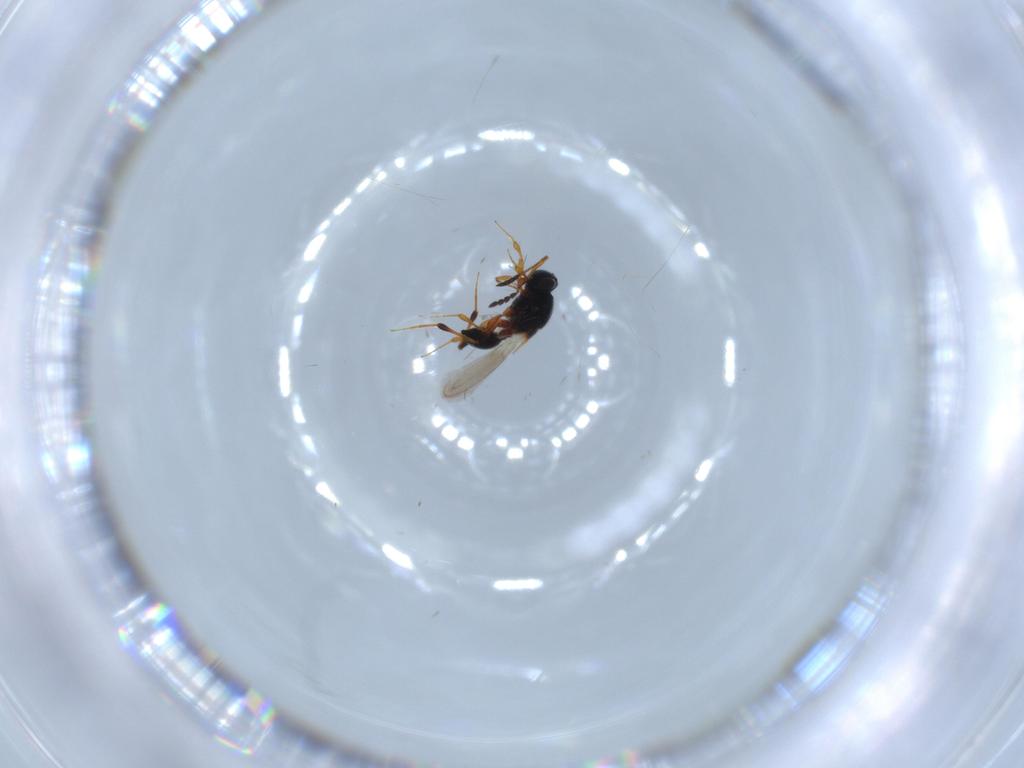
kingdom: Animalia
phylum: Arthropoda
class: Insecta
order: Hymenoptera
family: Platygastridae
